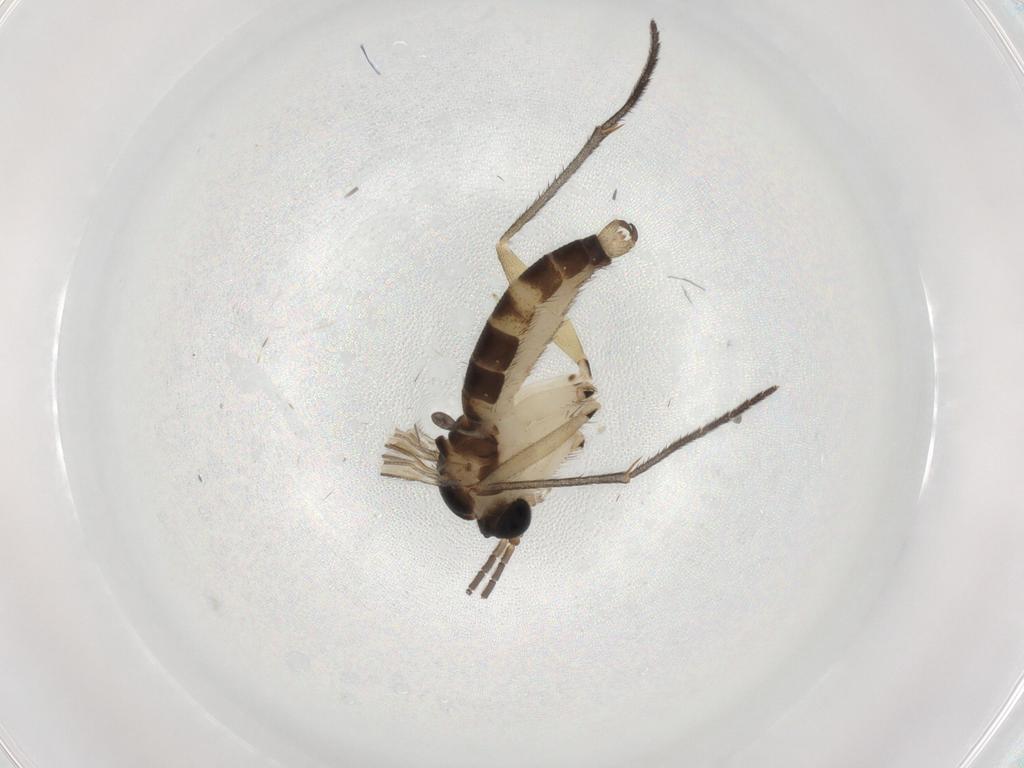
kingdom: Animalia
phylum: Arthropoda
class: Insecta
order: Diptera
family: Sciaridae
